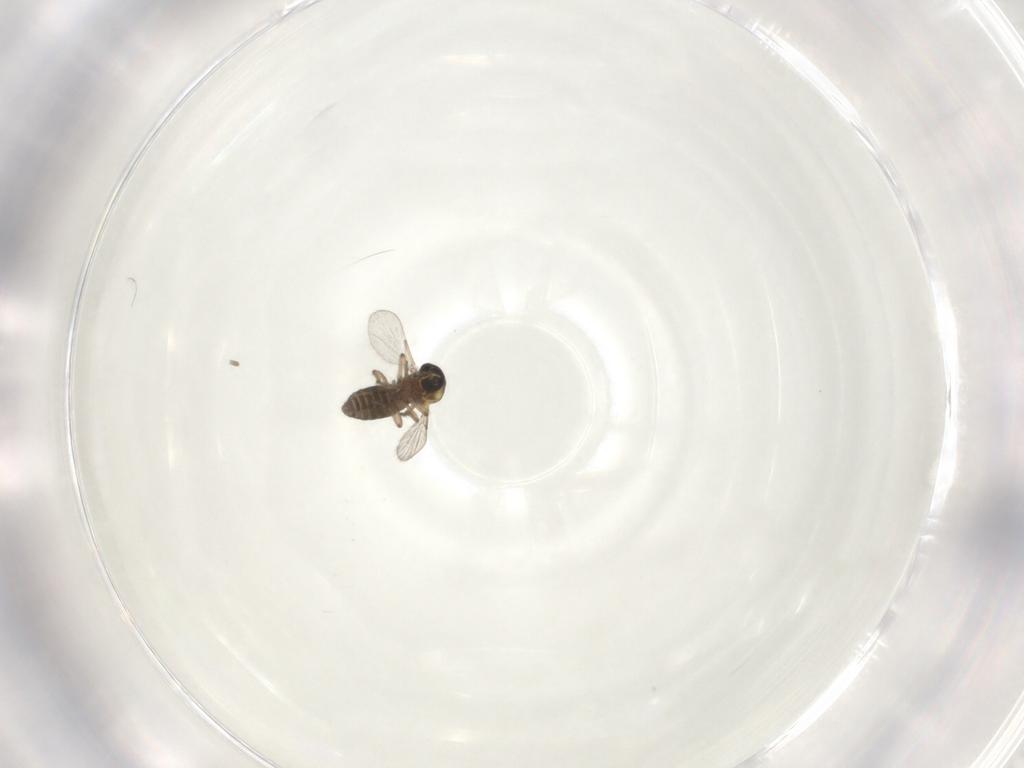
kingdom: Animalia
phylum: Arthropoda
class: Insecta
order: Diptera
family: Ceratopogonidae
